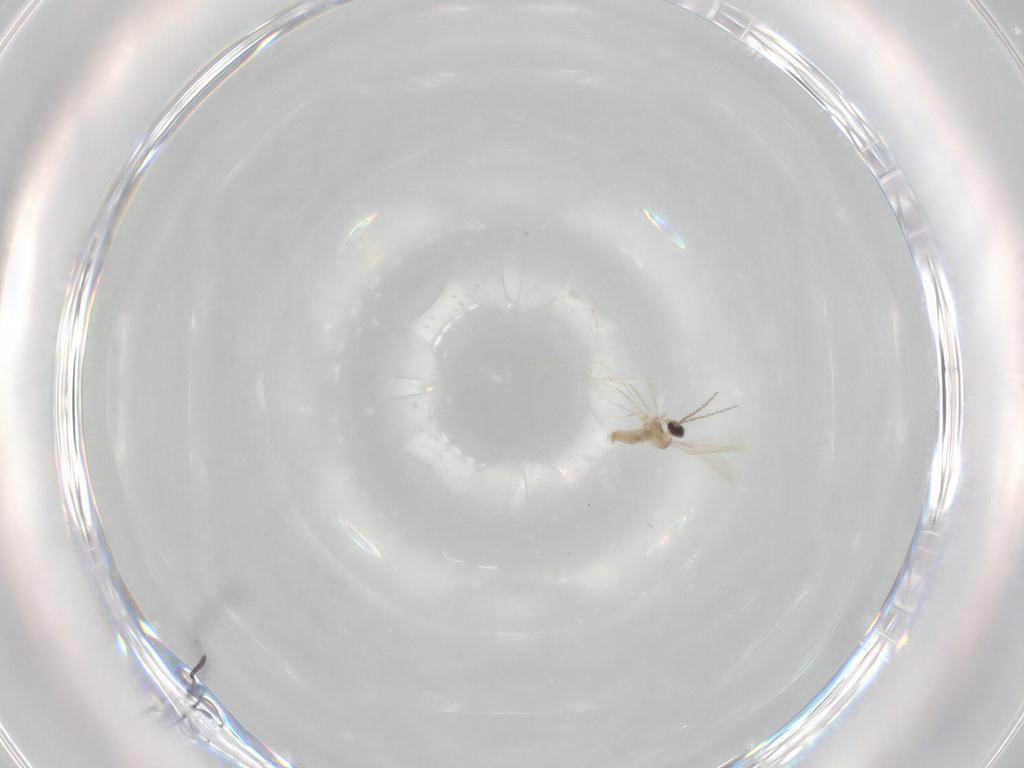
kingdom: Animalia
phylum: Arthropoda
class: Insecta
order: Diptera
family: Cecidomyiidae
